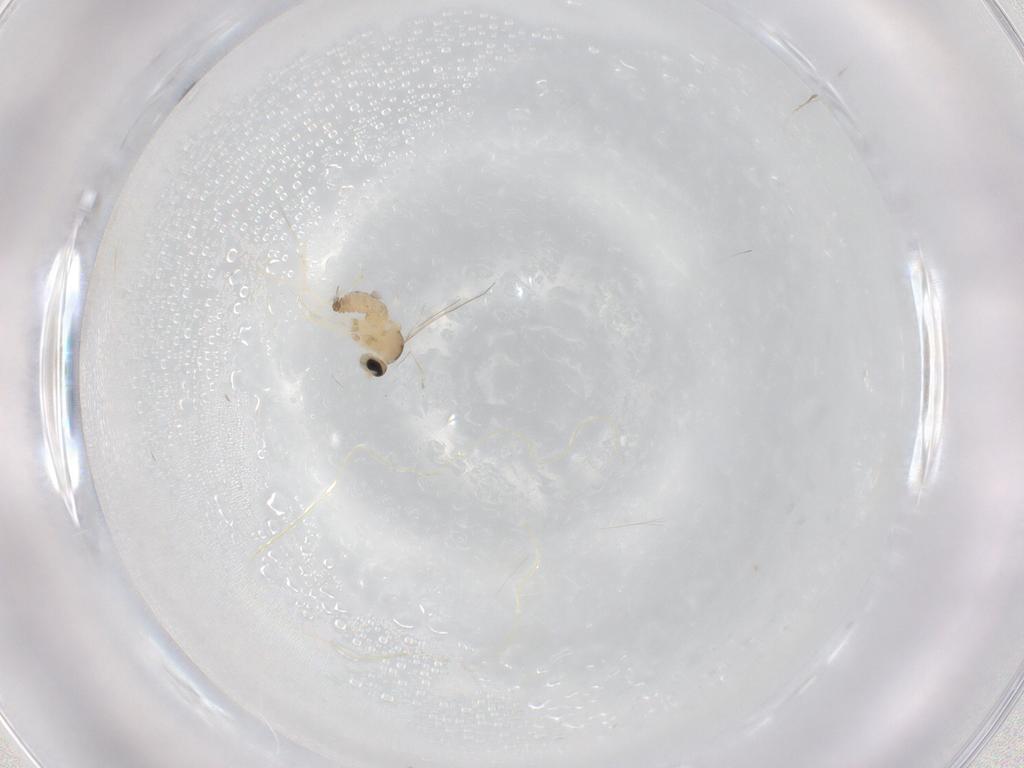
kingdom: Animalia
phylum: Arthropoda
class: Insecta
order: Diptera
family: Cecidomyiidae
